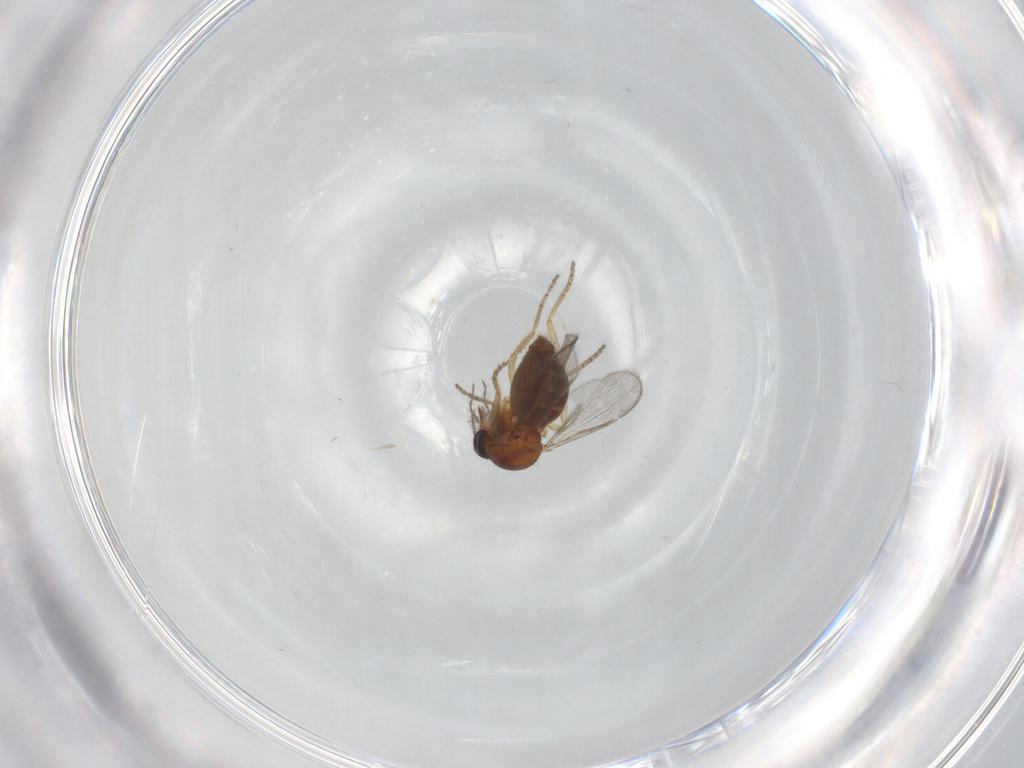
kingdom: Animalia
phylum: Arthropoda
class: Insecta
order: Diptera
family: Ceratopogonidae
